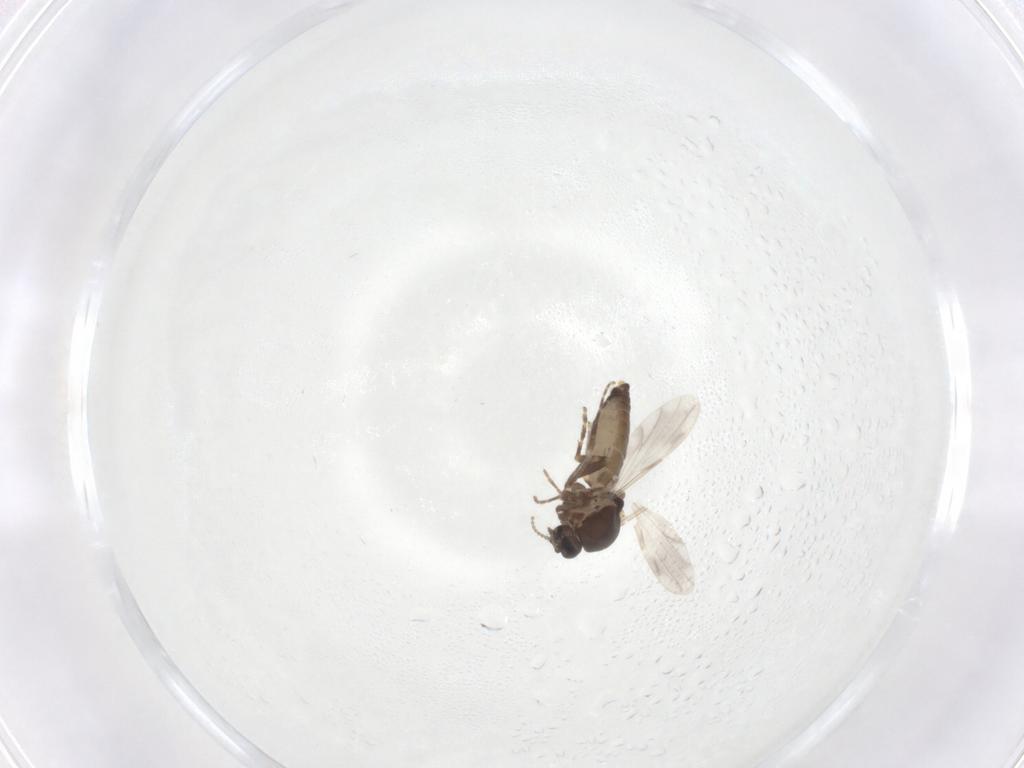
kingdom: Animalia
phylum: Arthropoda
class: Insecta
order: Diptera
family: Ceratopogonidae
